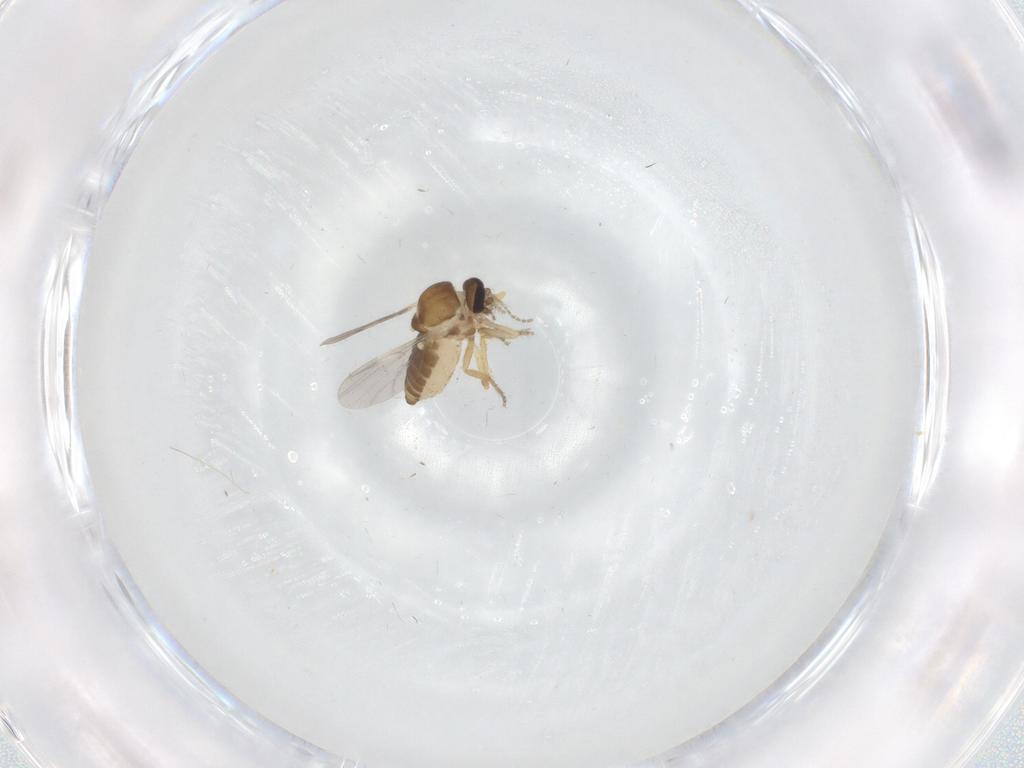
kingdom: Animalia
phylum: Arthropoda
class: Insecta
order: Diptera
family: Ceratopogonidae
